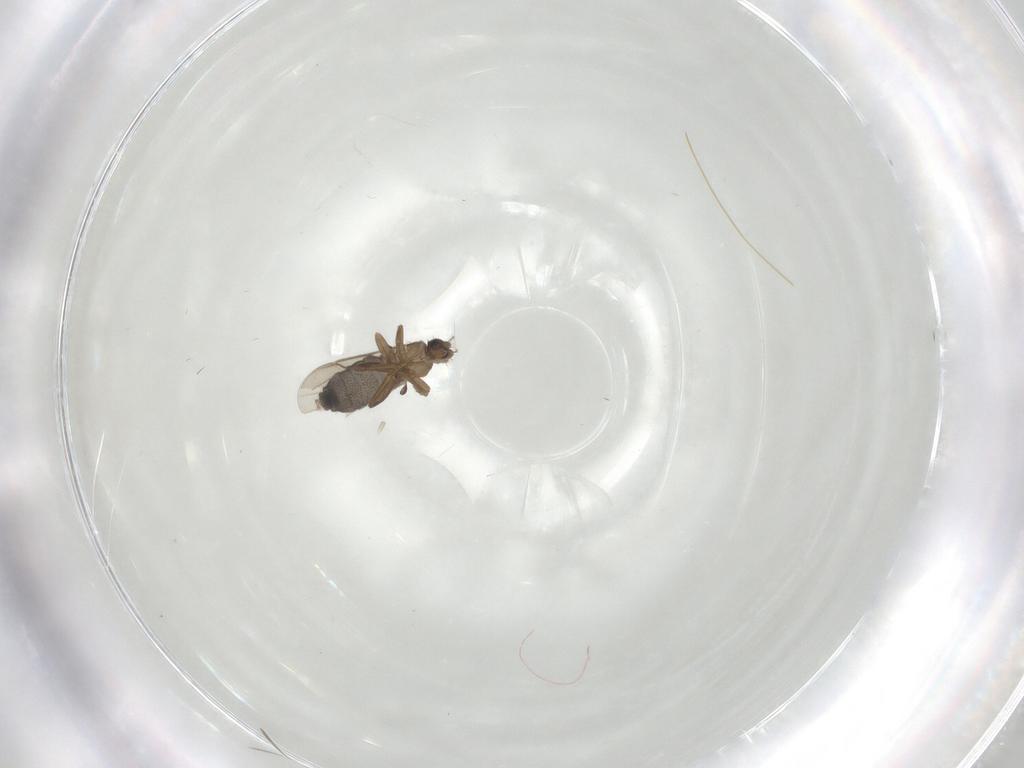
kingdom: Animalia
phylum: Arthropoda
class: Insecta
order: Diptera
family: Phoridae
